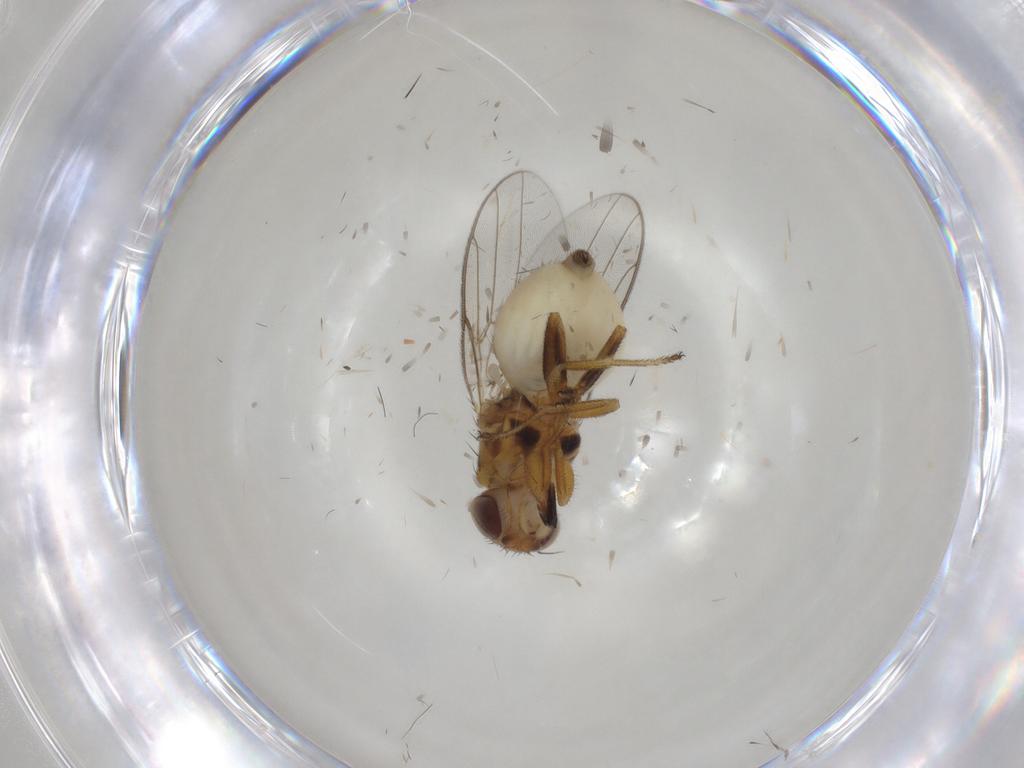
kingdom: Animalia
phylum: Arthropoda
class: Insecta
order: Diptera
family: Chloropidae
